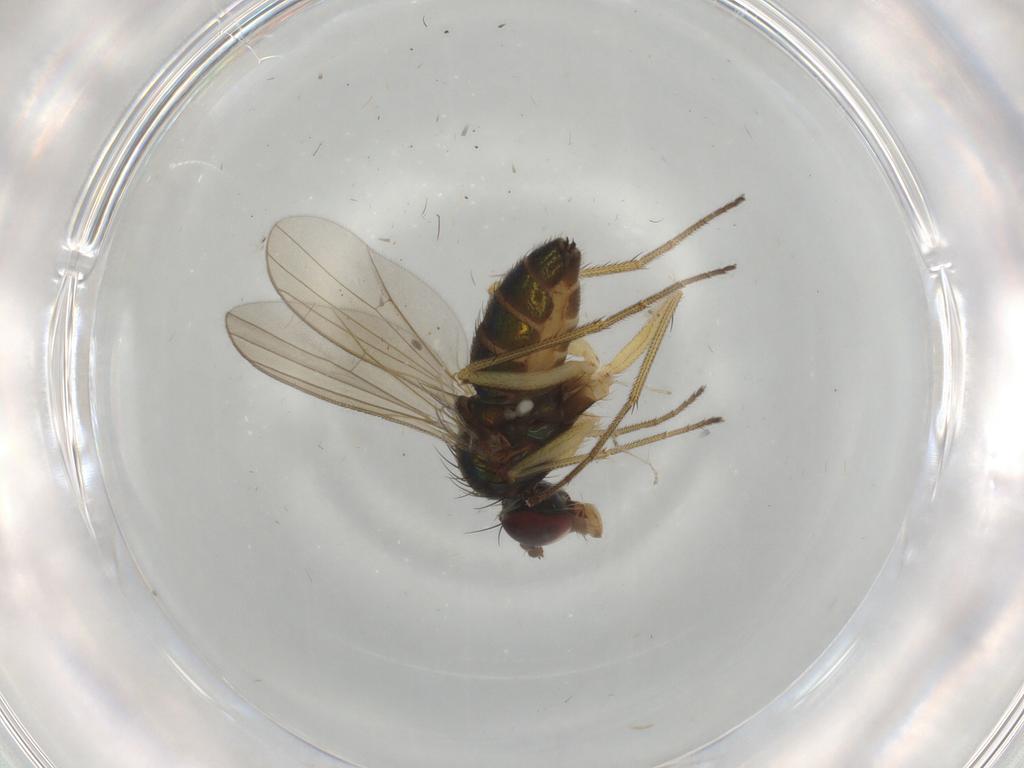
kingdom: Animalia
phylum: Arthropoda
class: Insecta
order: Diptera
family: Dolichopodidae
